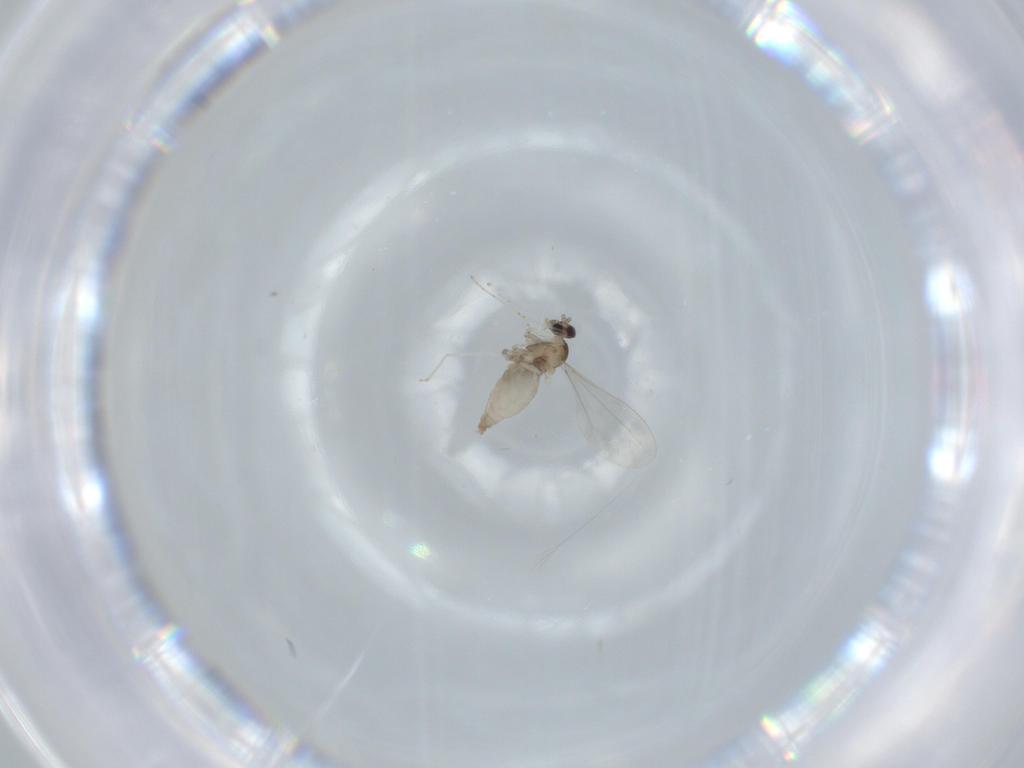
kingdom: Animalia
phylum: Arthropoda
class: Insecta
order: Diptera
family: Cecidomyiidae
